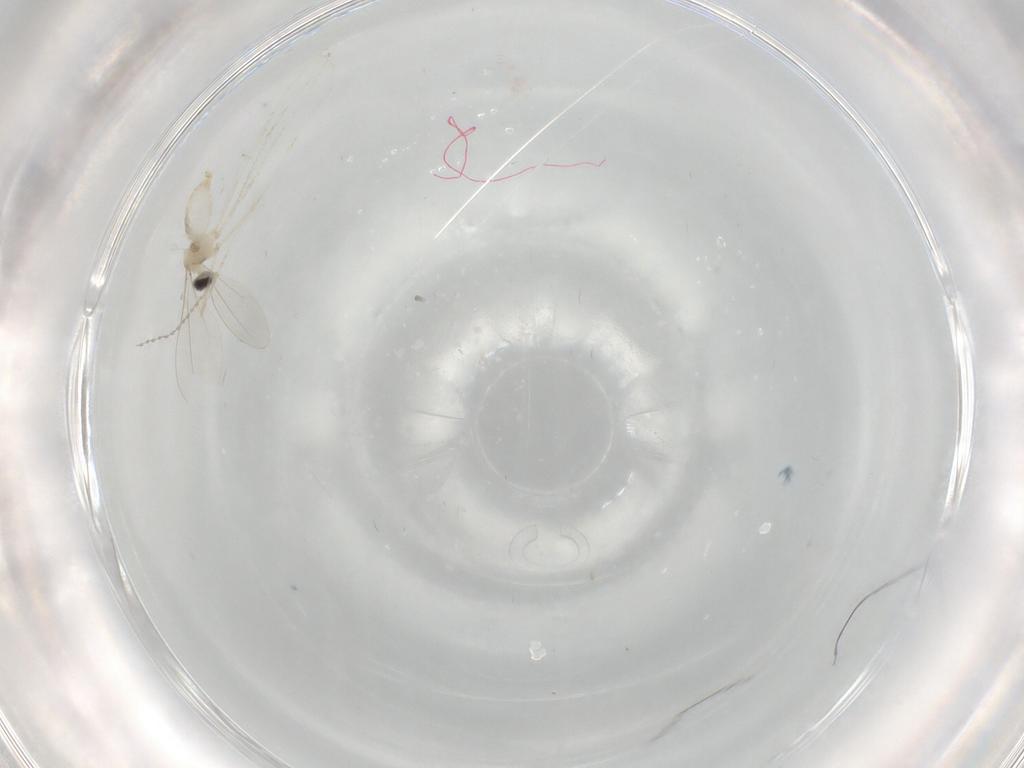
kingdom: Animalia
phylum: Arthropoda
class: Insecta
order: Diptera
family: Cecidomyiidae
